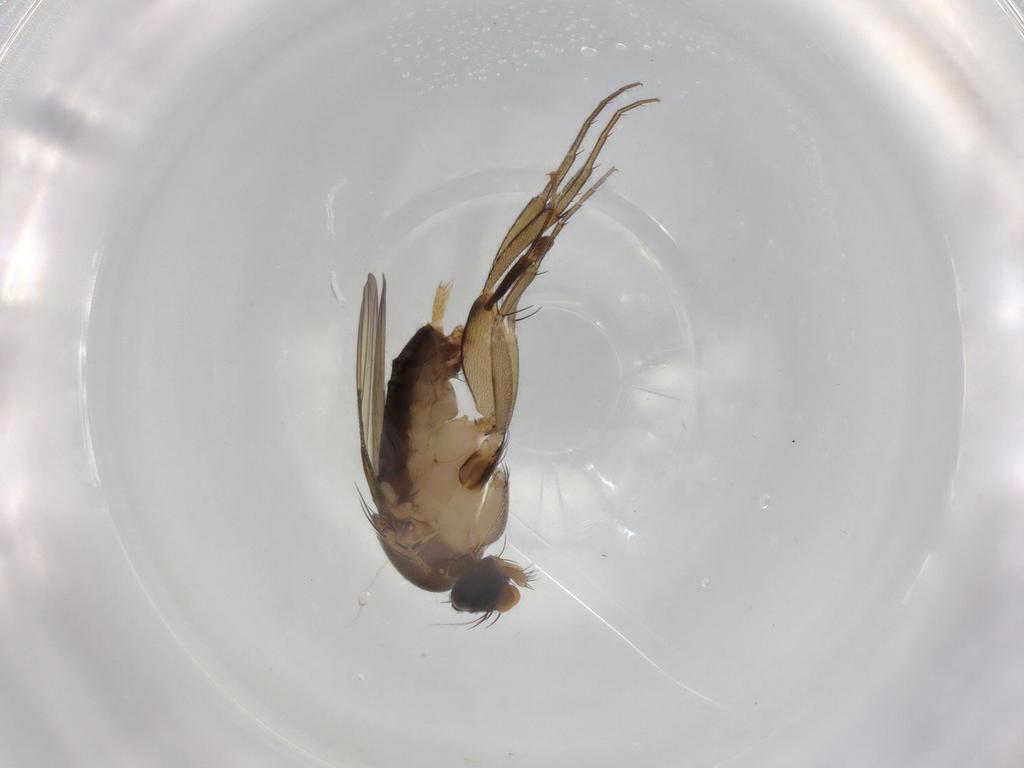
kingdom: Animalia
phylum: Arthropoda
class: Insecta
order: Diptera
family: Phoridae
